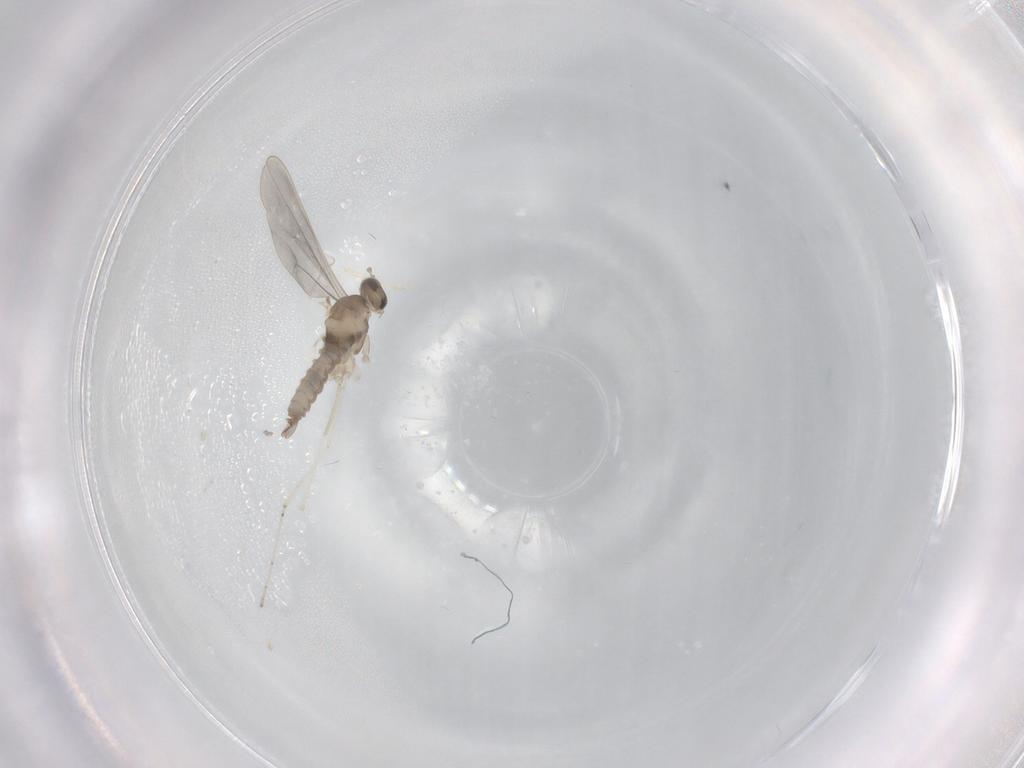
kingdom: Animalia
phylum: Arthropoda
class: Insecta
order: Diptera
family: Cecidomyiidae
